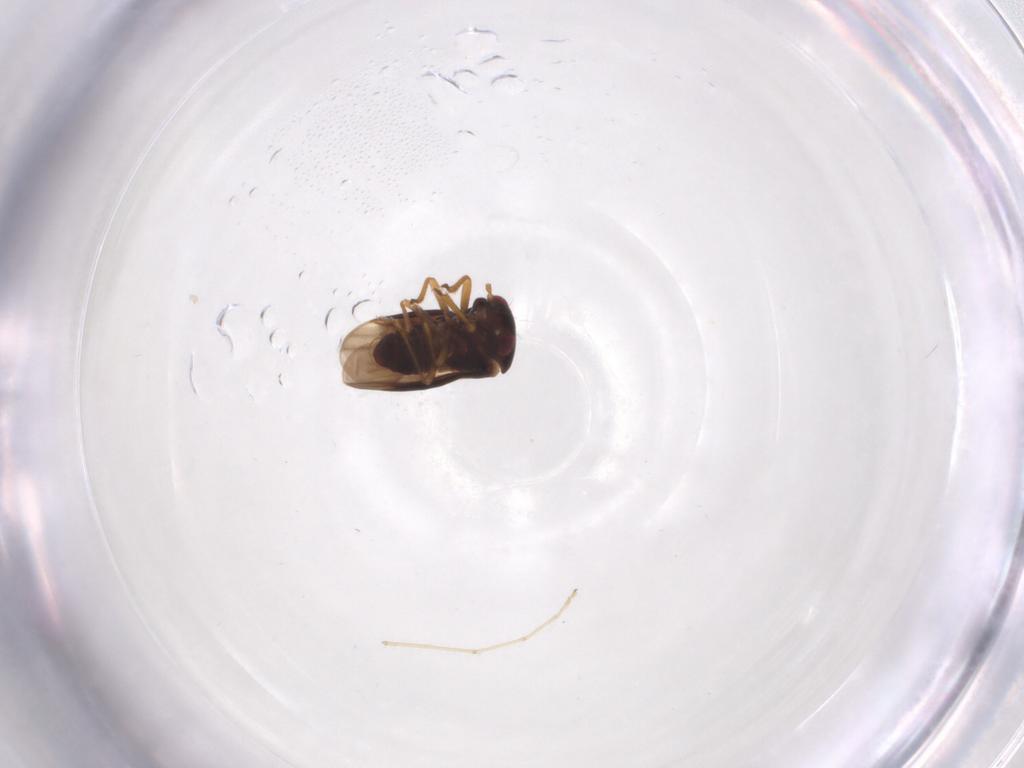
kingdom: Animalia
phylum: Arthropoda
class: Insecta
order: Hemiptera
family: Schizopteridae
